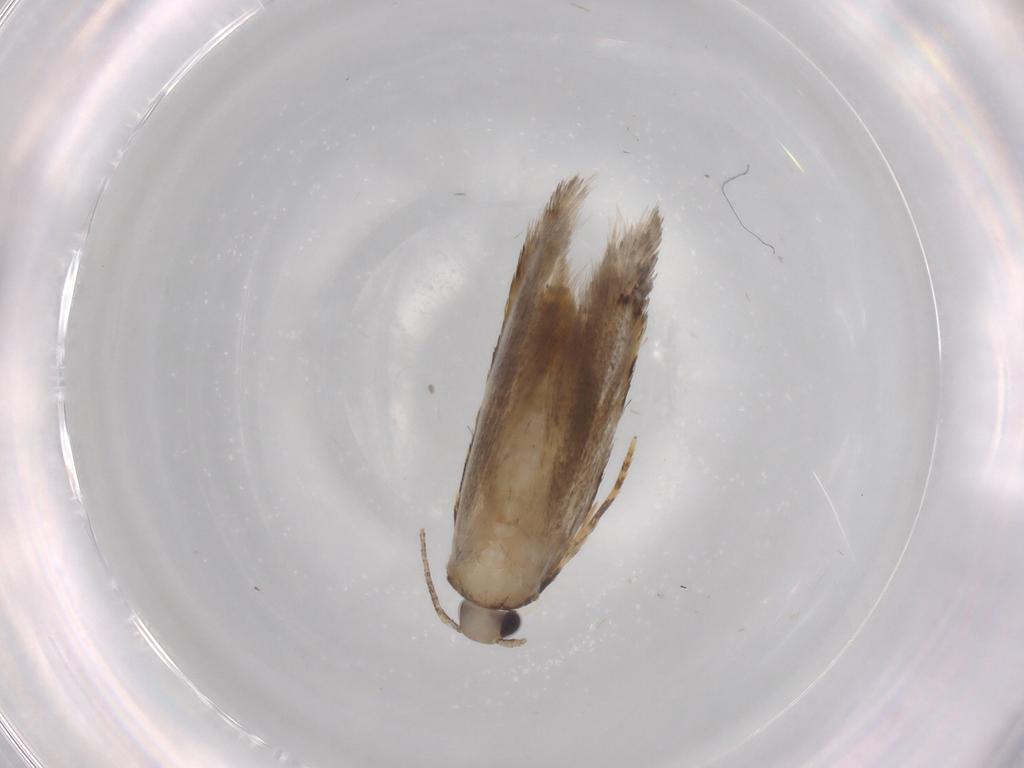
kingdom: Animalia
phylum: Arthropoda
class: Insecta
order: Lepidoptera
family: Autostichidae
